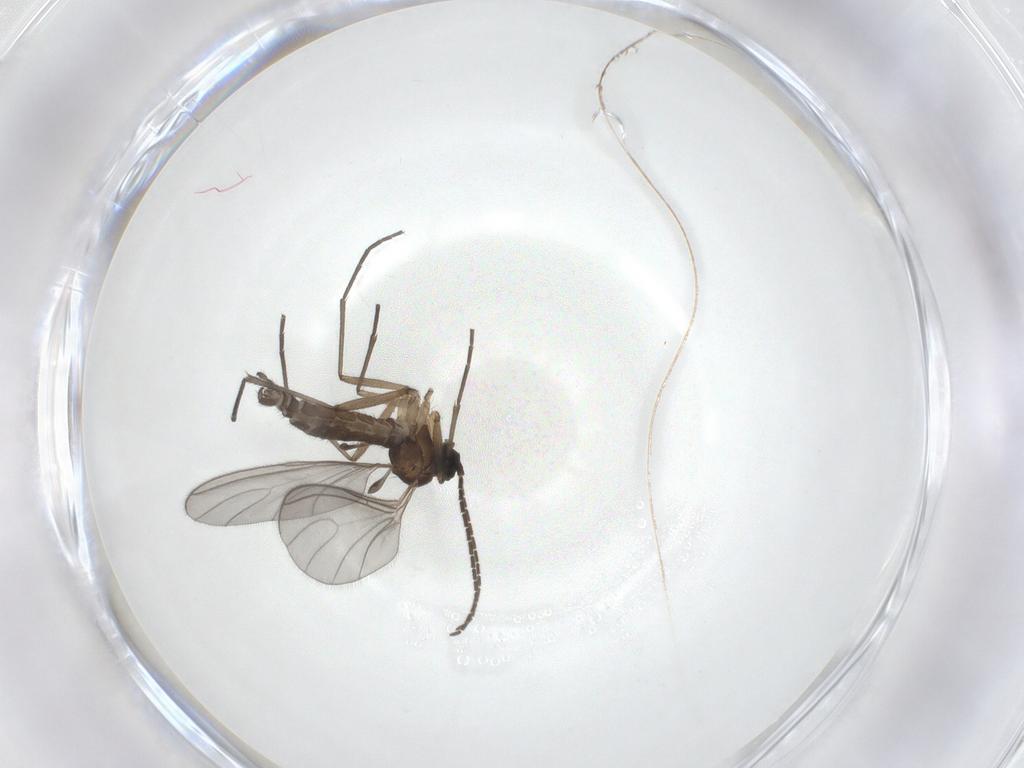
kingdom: Animalia
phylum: Arthropoda
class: Insecta
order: Diptera
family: Sciaridae
